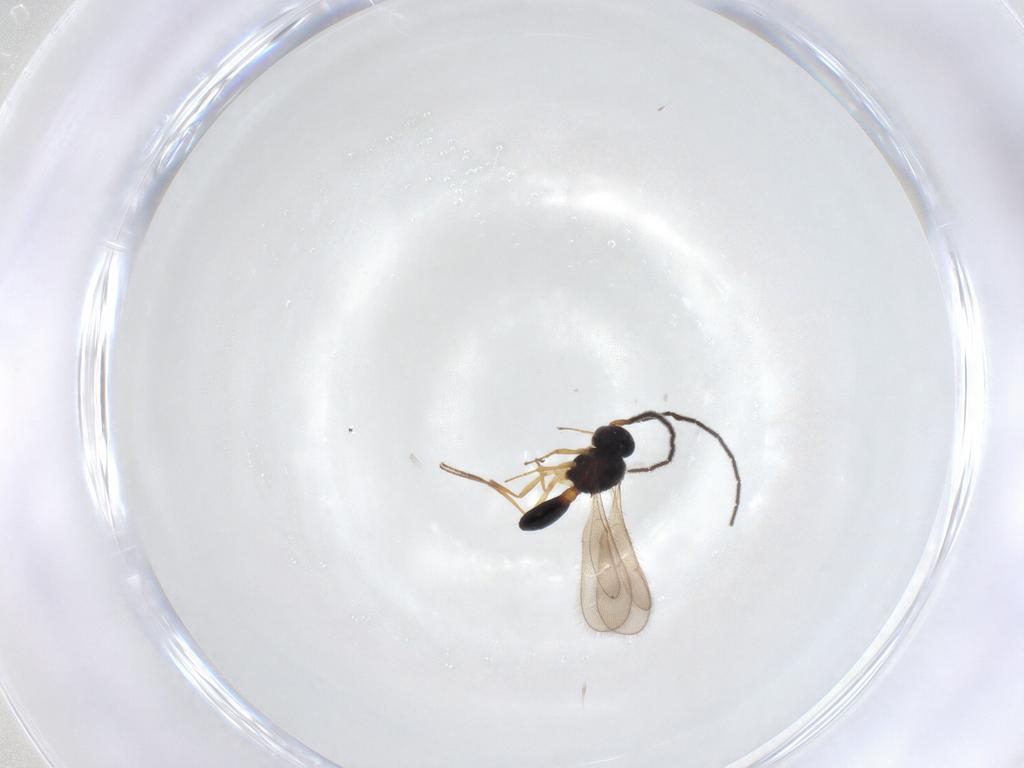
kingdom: Animalia
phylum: Arthropoda
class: Insecta
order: Hymenoptera
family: Scelionidae
